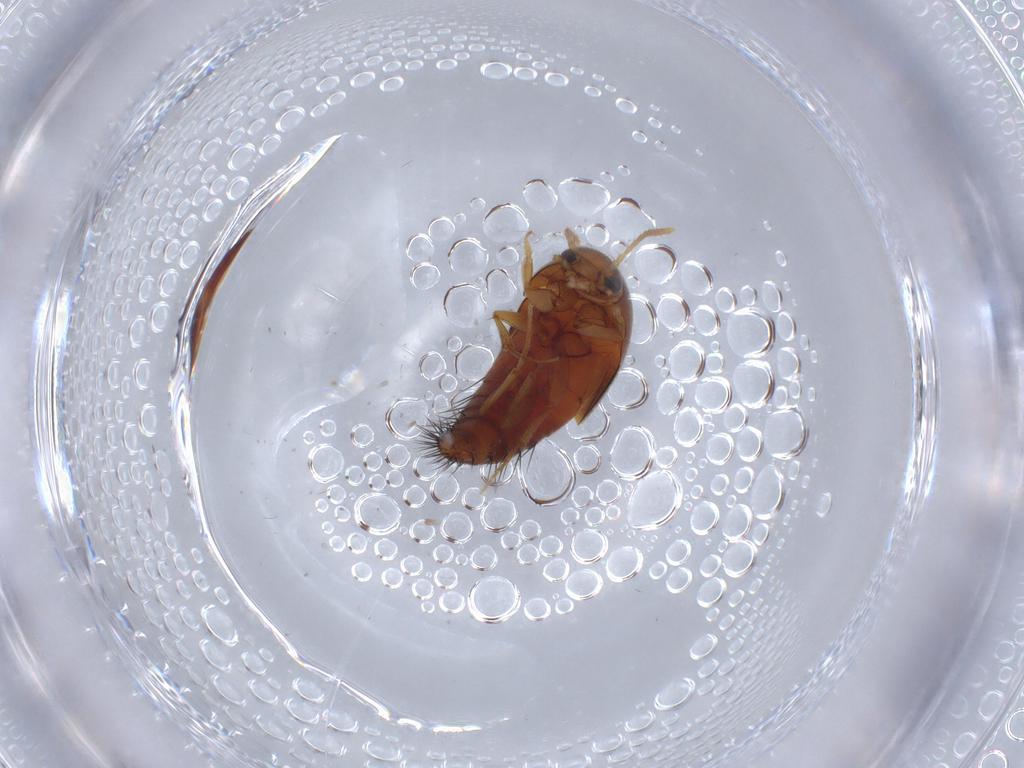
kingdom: Animalia
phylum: Arthropoda
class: Insecta
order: Coleoptera
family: Staphylinidae
